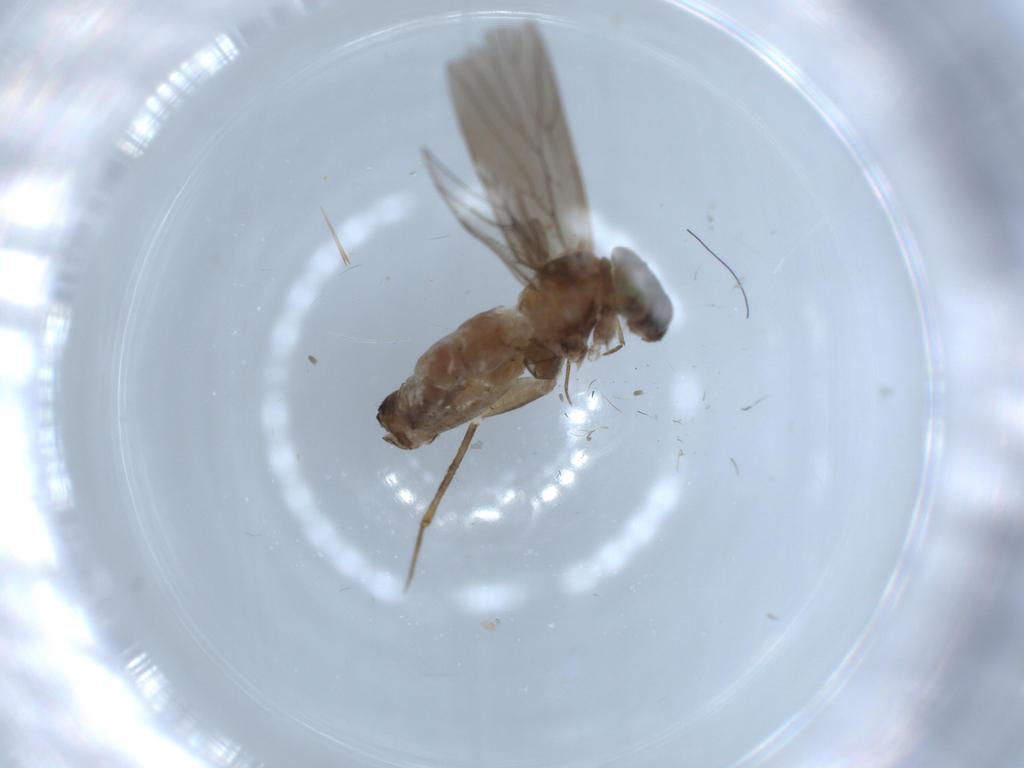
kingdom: Animalia
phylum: Arthropoda
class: Insecta
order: Psocodea
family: Lepidopsocidae
